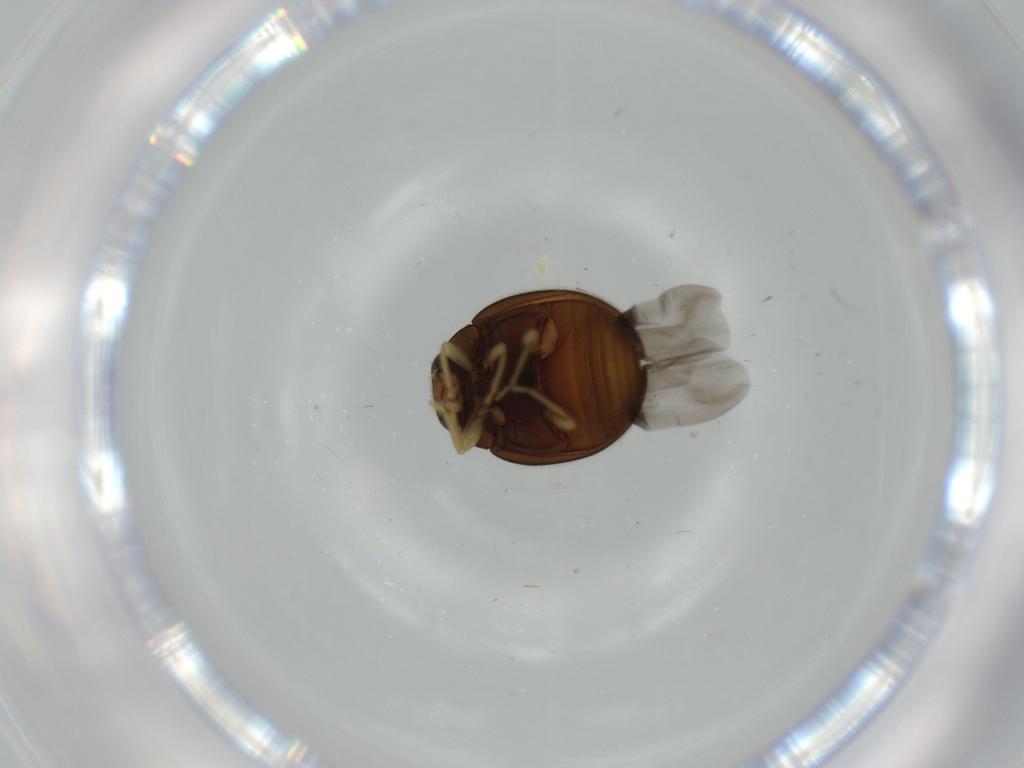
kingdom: Animalia
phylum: Arthropoda
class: Insecta
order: Coleoptera
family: Coccinellidae
